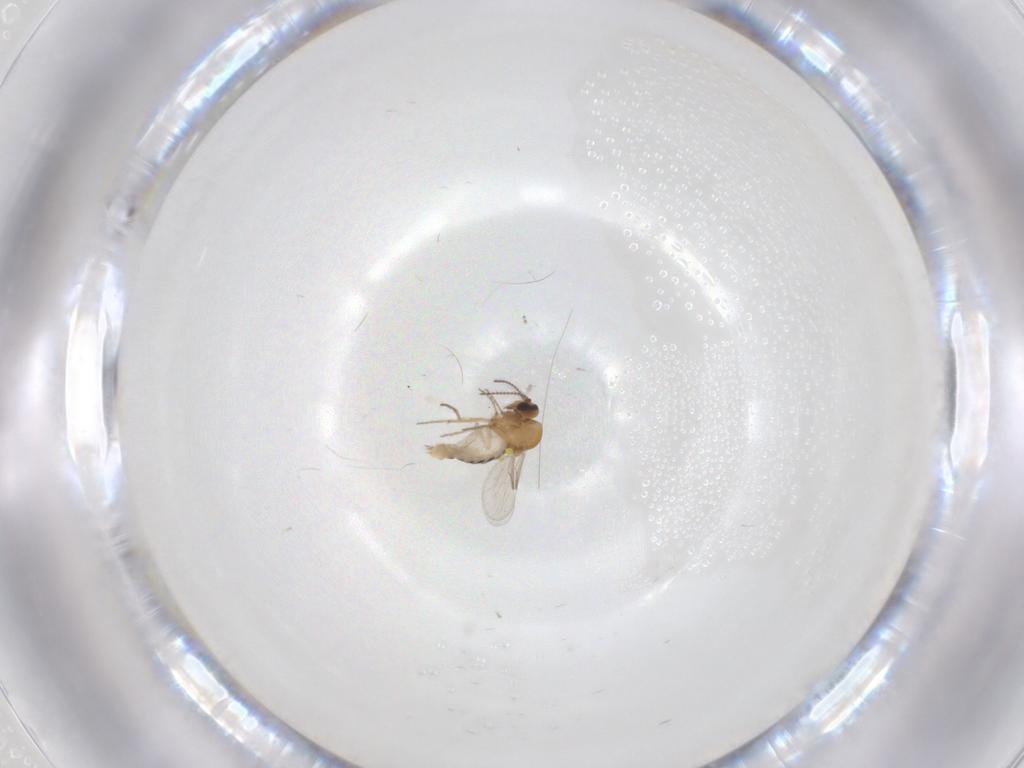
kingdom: Animalia
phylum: Arthropoda
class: Insecta
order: Diptera
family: Ceratopogonidae
